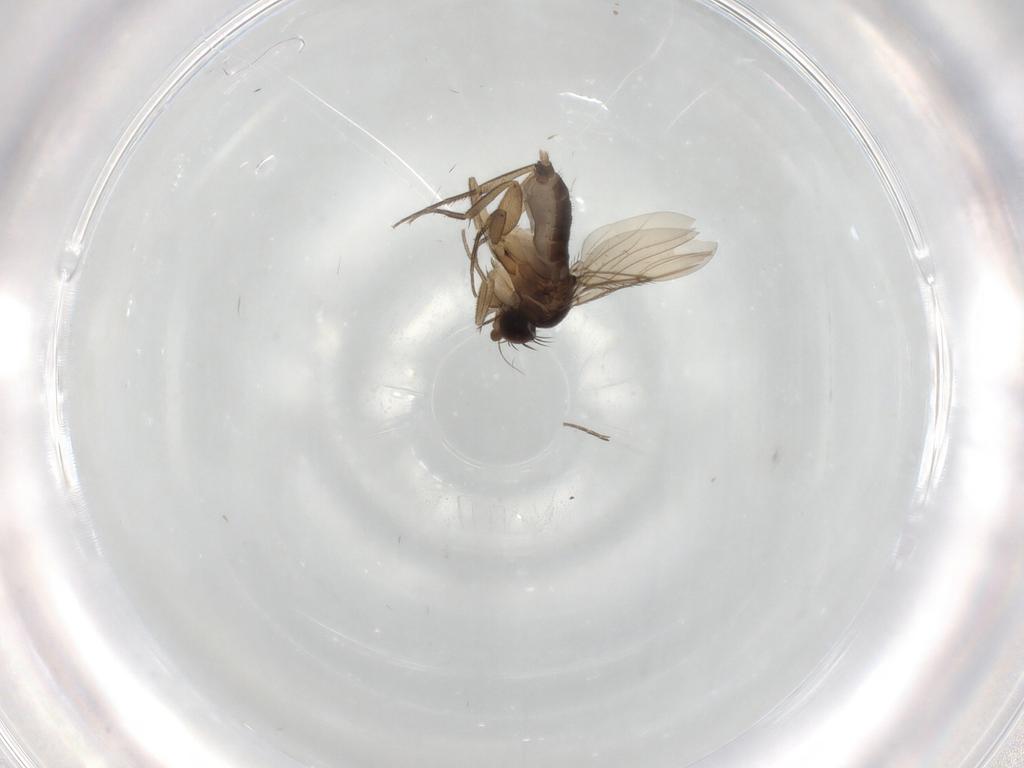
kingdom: Animalia
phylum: Arthropoda
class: Insecta
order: Diptera
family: Phoridae
